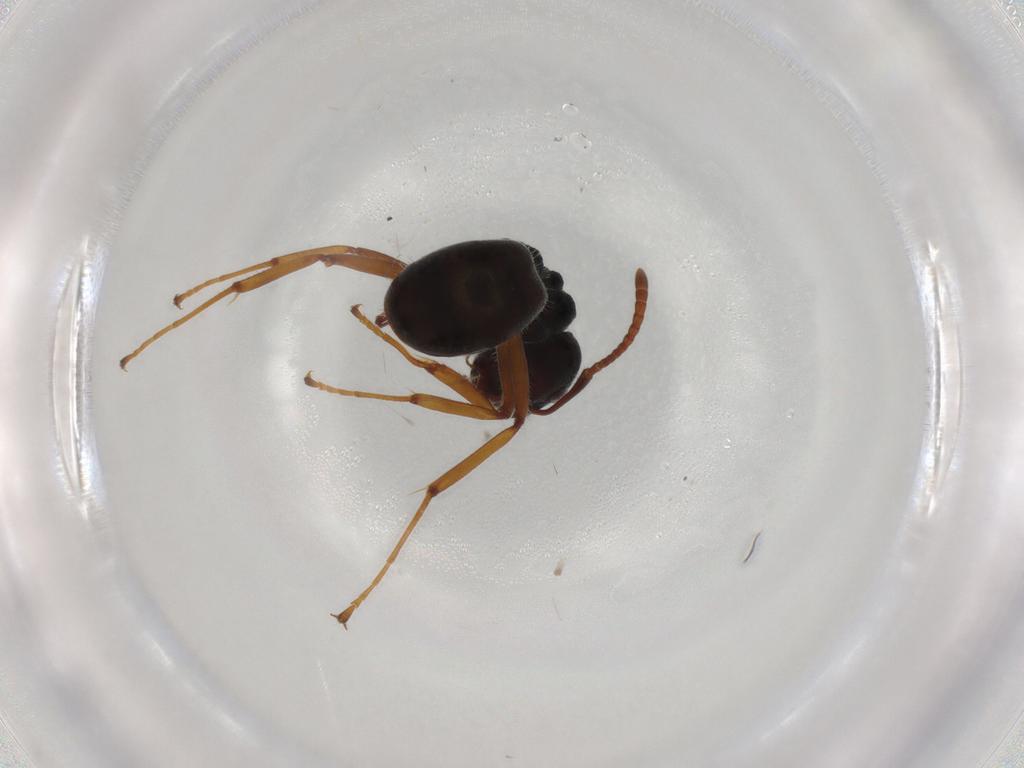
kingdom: Animalia
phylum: Arthropoda
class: Insecta
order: Hymenoptera
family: Formicidae
